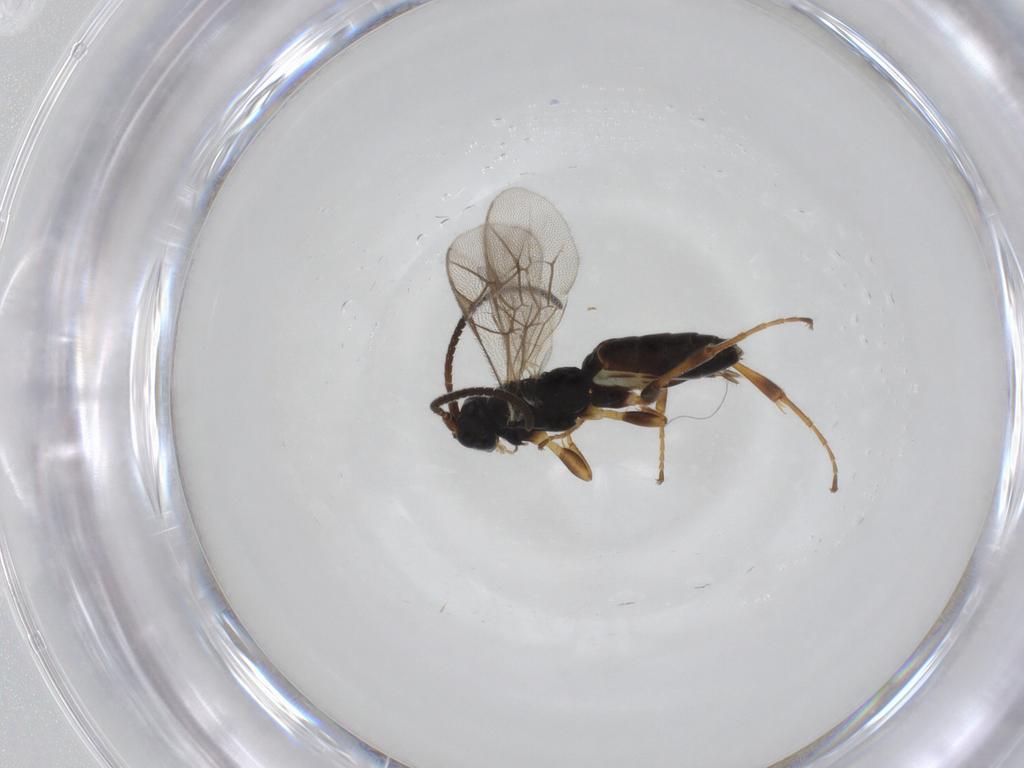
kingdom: Animalia
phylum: Arthropoda
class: Insecta
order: Hymenoptera
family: Ichneumonidae
